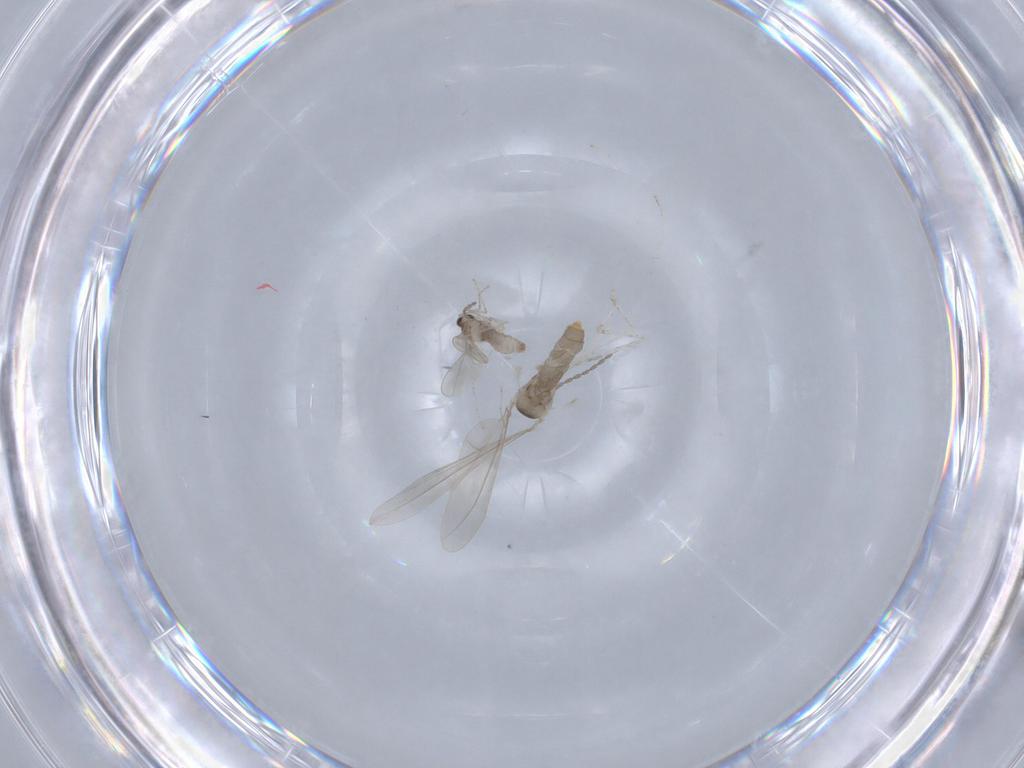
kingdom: Animalia
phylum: Arthropoda
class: Insecta
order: Diptera
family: Cecidomyiidae
